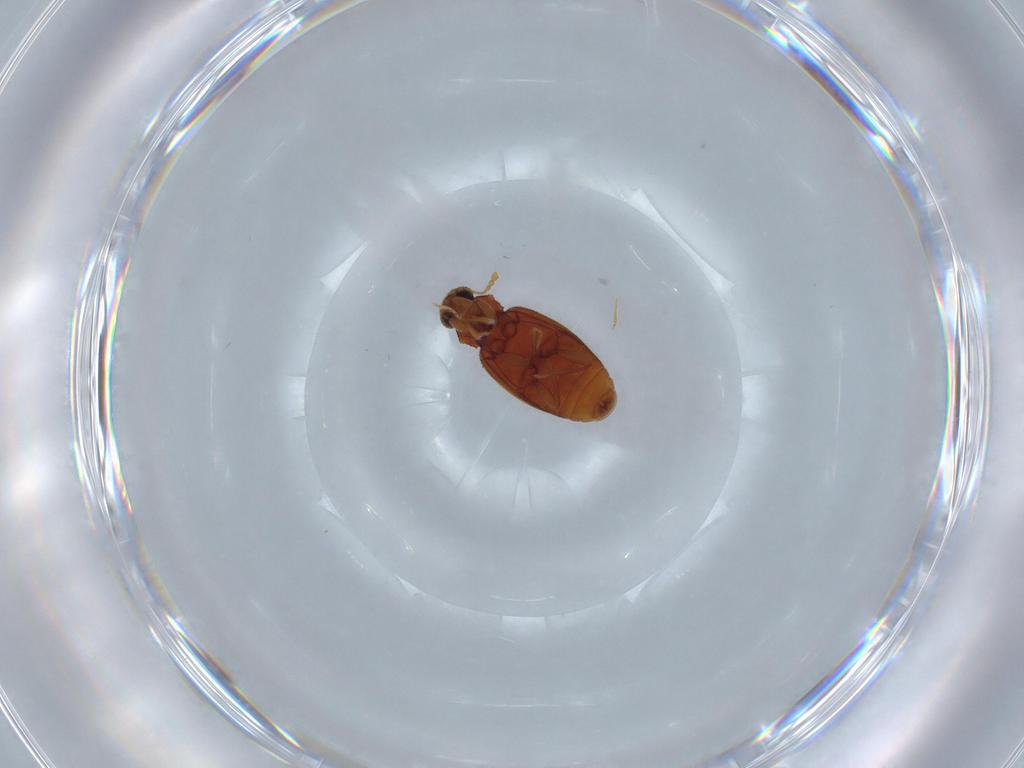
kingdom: Animalia
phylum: Arthropoda
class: Insecta
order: Coleoptera
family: Latridiidae
